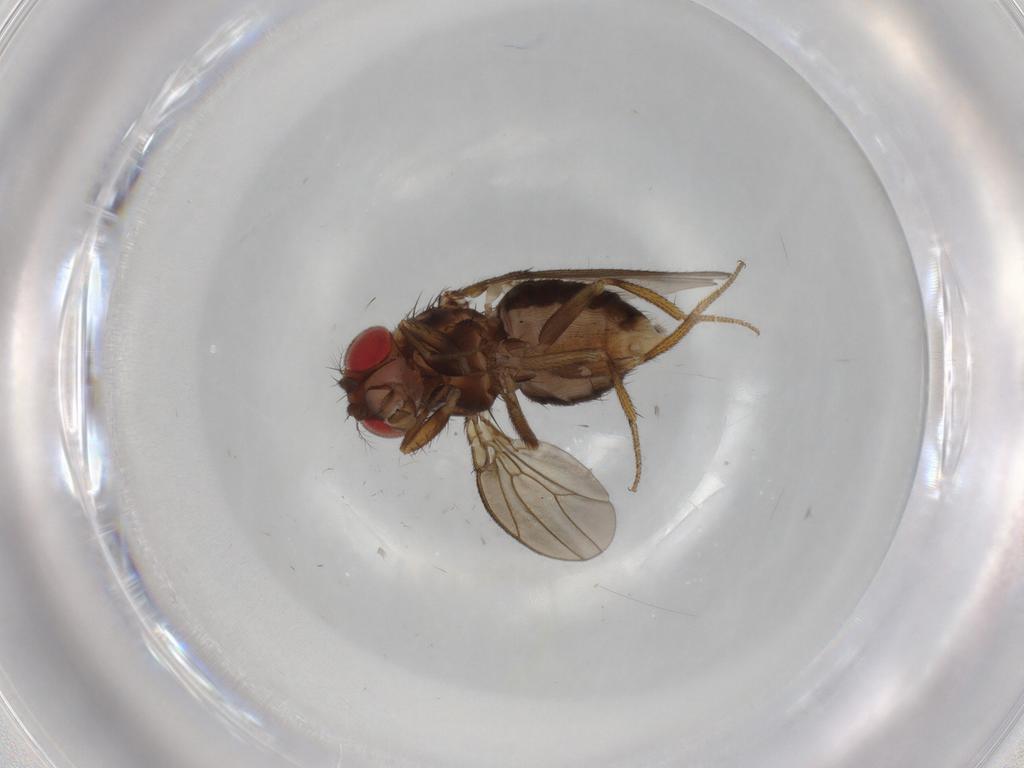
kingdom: Animalia
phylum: Arthropoda
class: Insecta
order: Diptera
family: Drosophilidae
